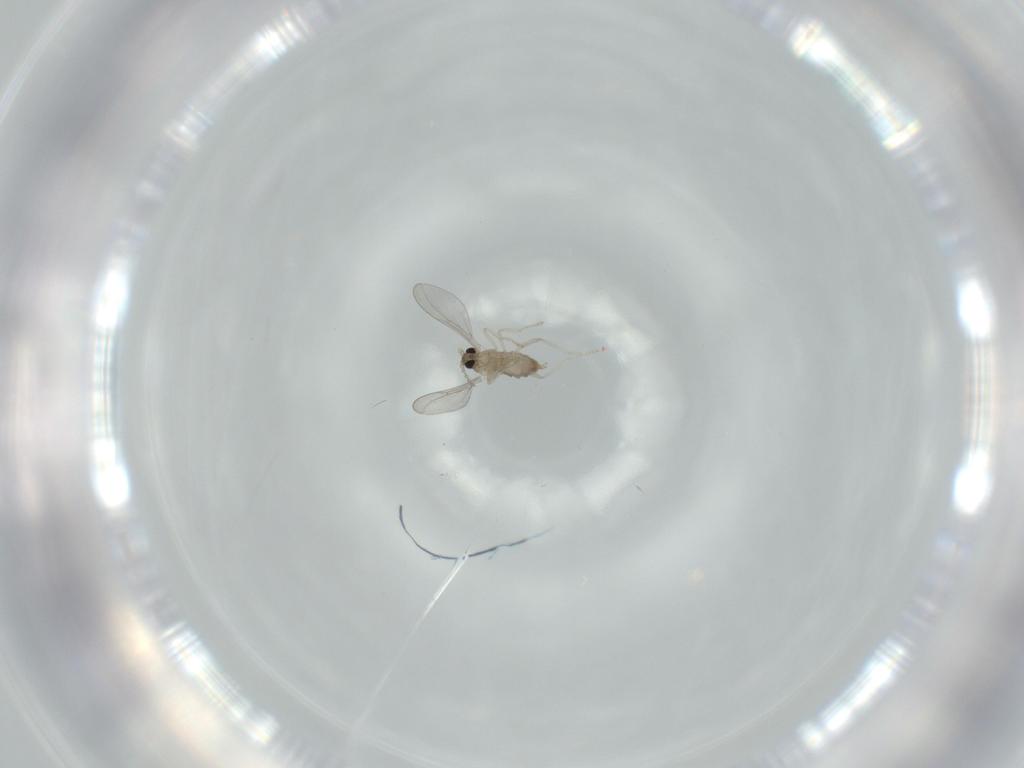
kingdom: Animalia
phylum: Arthropoda
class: Insecta
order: Diptera
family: Cecidomyiidae
